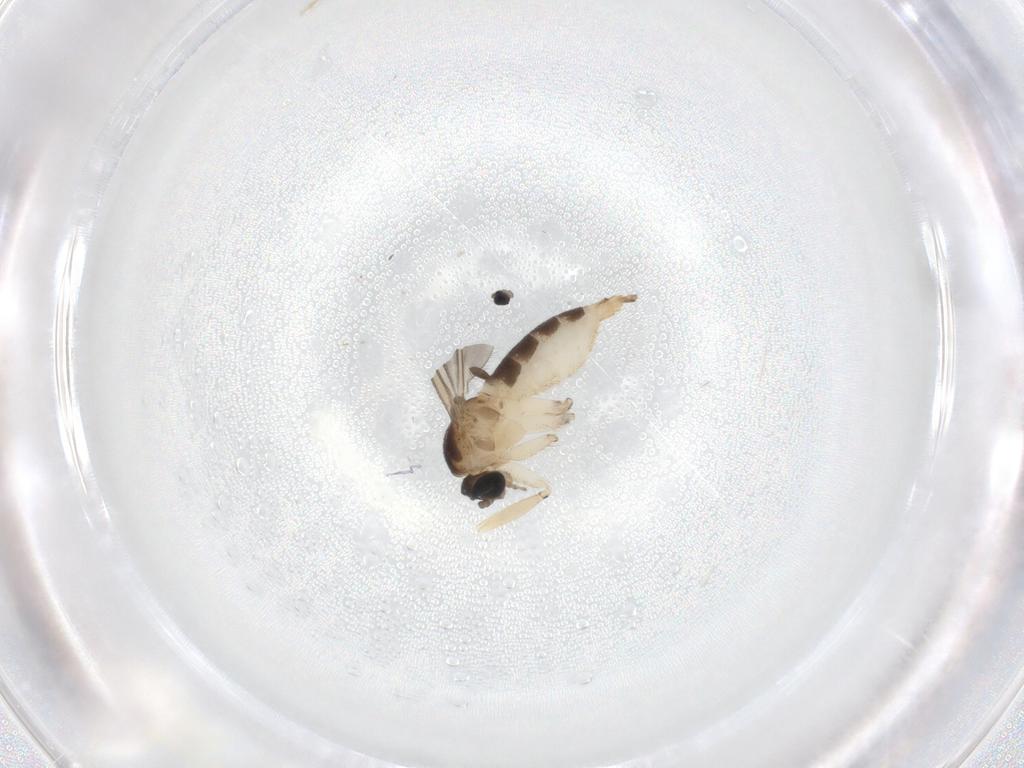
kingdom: Animalia
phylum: Arthropoda
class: Insecta
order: Diptera
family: Sciaridae
